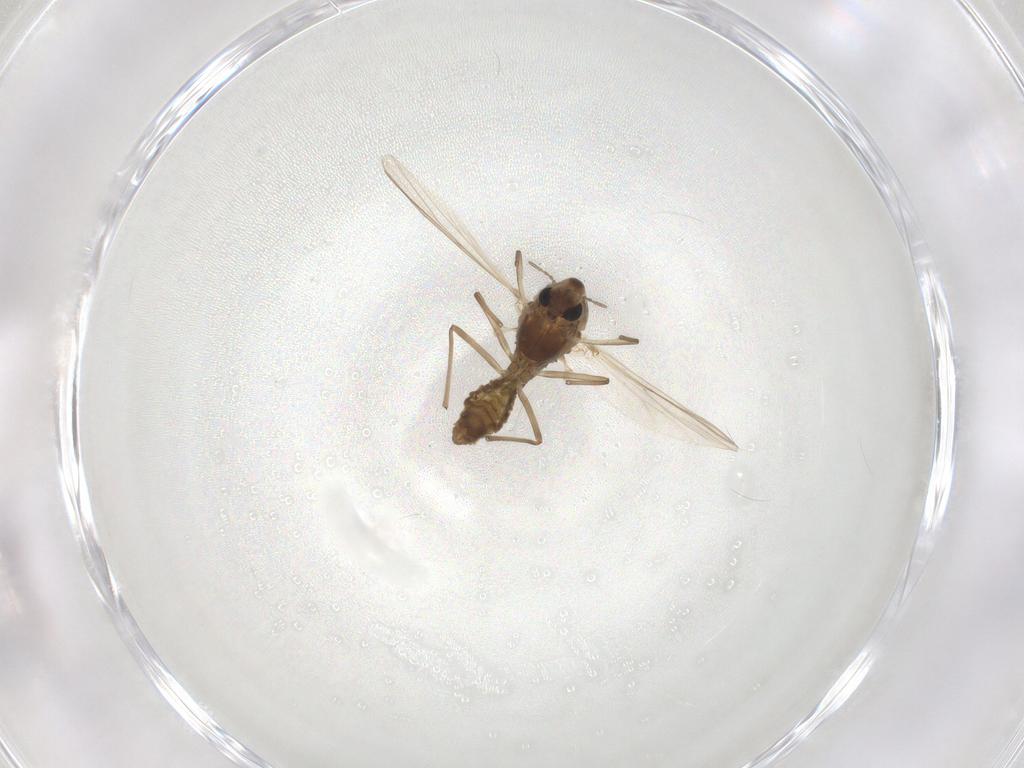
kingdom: Animalia
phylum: Arthropoda
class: Insecta
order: Diptera
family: Chironomidae
